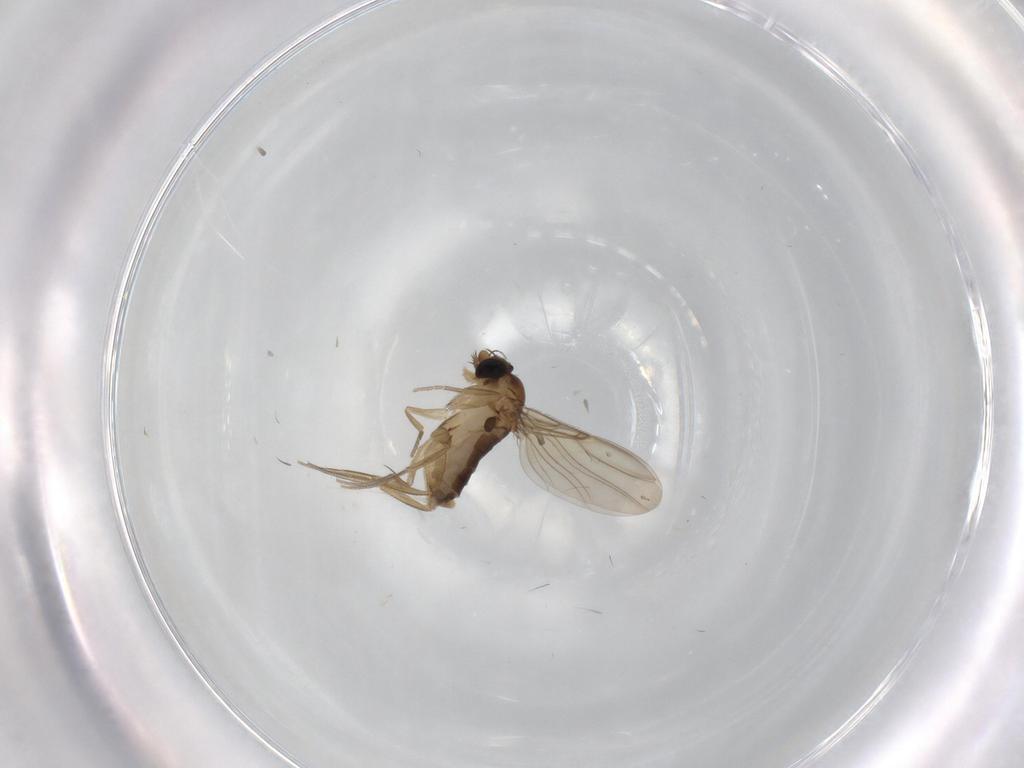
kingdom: Animalia
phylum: Arthropoda
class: Insecta
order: Diptera
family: Phoridae
